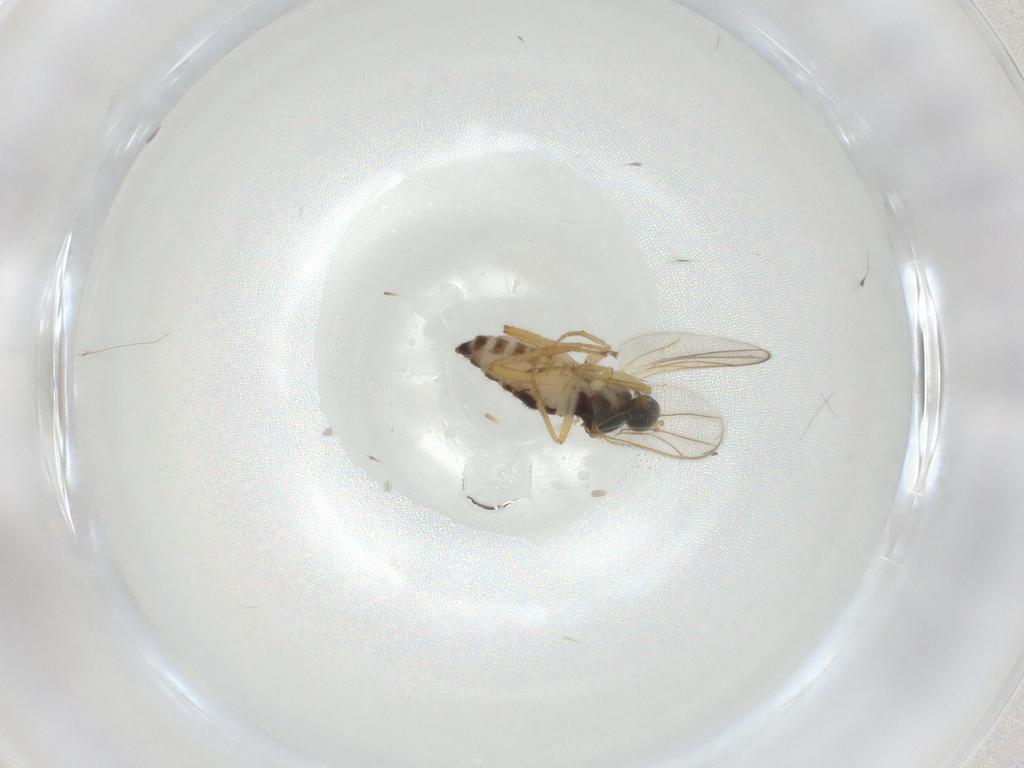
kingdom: Animalia
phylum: Arthropoda
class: Insecta
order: Diptera
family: Hybotidae
